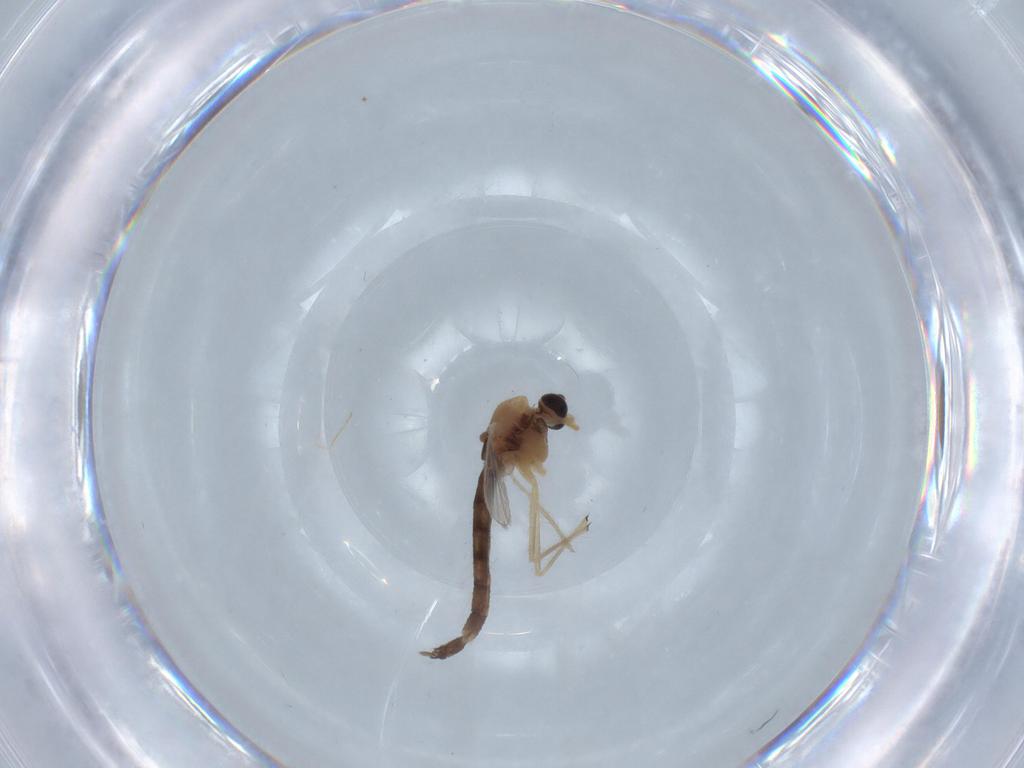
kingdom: Animalia
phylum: Arthropoda
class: Insecta
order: Diptera
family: Chironomidae
